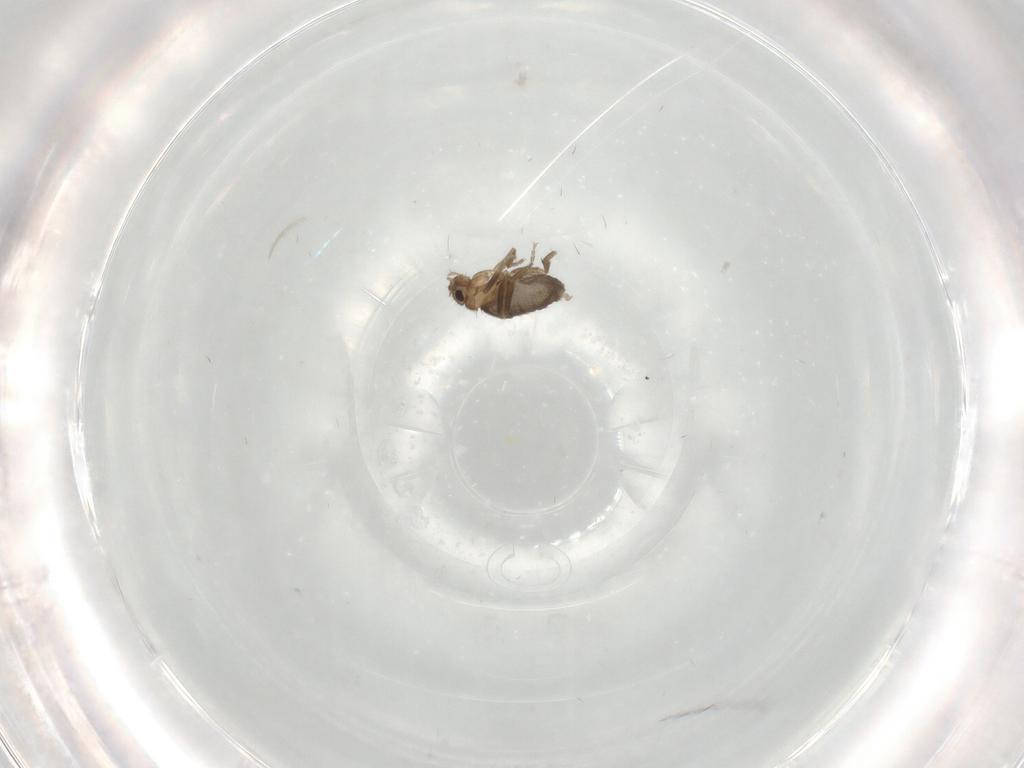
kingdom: Animalia
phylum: Arthropoda
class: Insecta
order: Diptera
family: Phoridae
